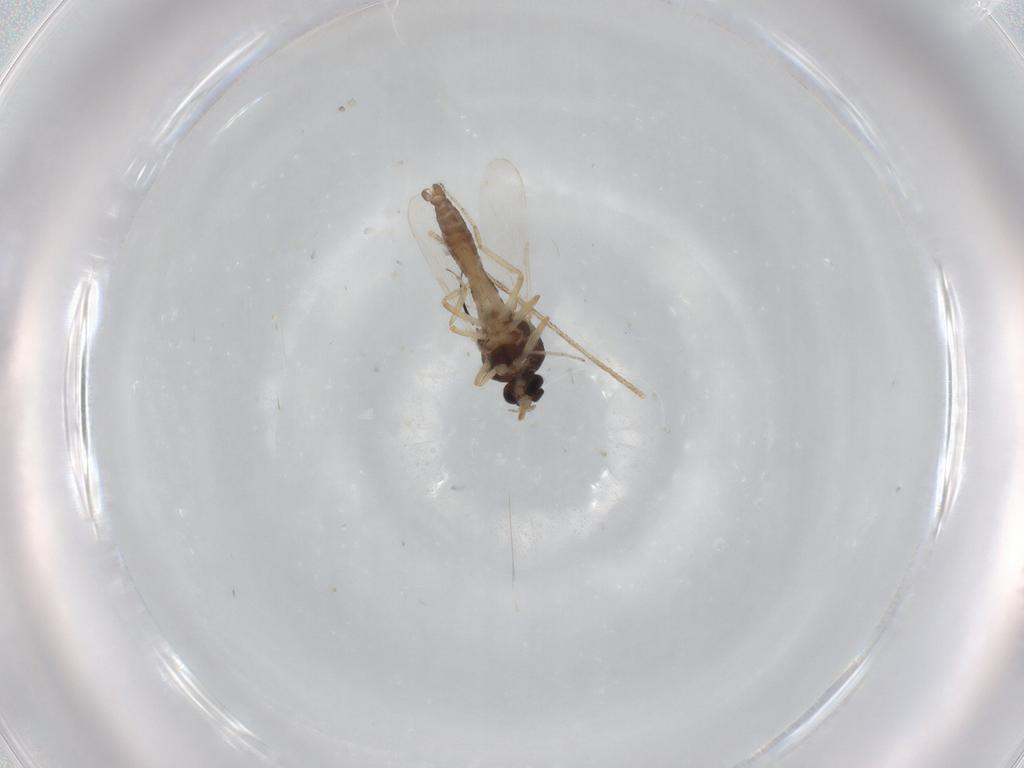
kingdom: Animalia
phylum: Arthropoda
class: Insecta
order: Diptera
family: Ceratopogonidae
